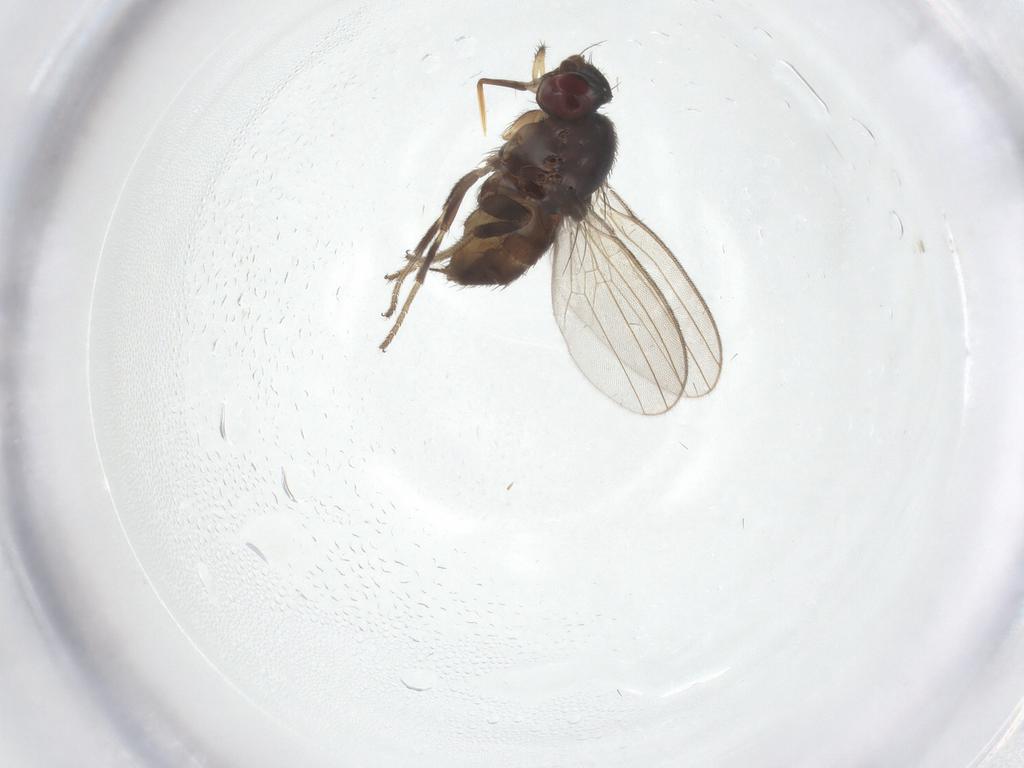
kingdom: Animalia
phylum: Arthropoda
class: Insecta
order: Diptera
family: Milichiidae
